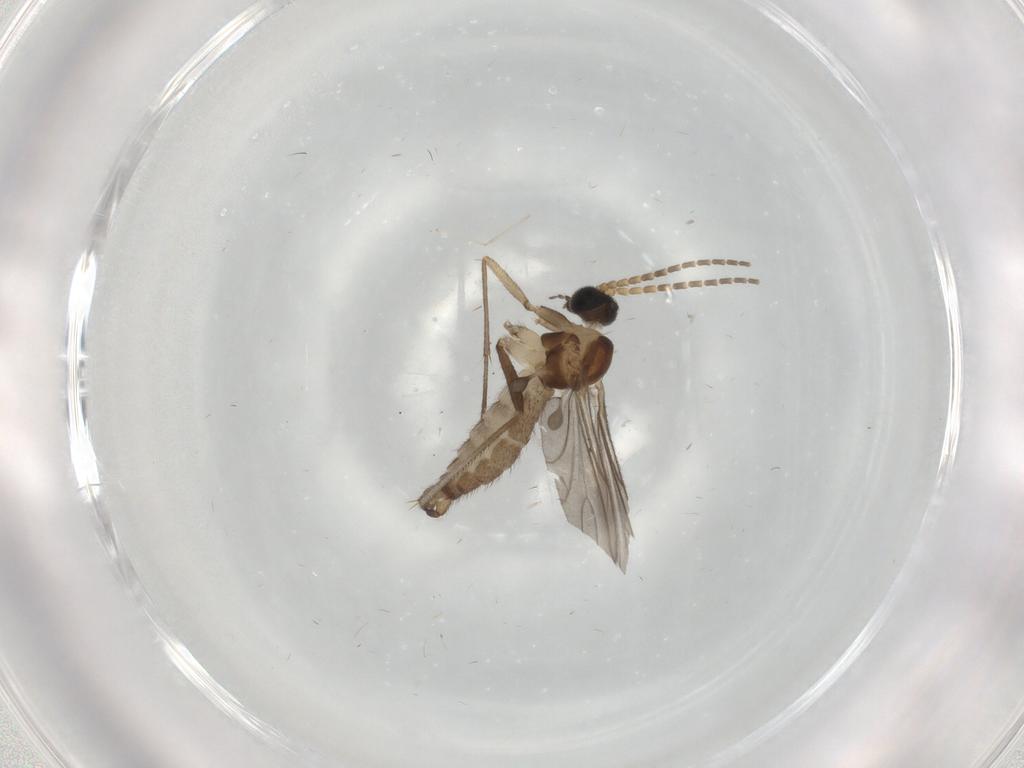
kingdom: Animalia
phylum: Arthropoda
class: Insecta
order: Diptera
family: Sciaridae
